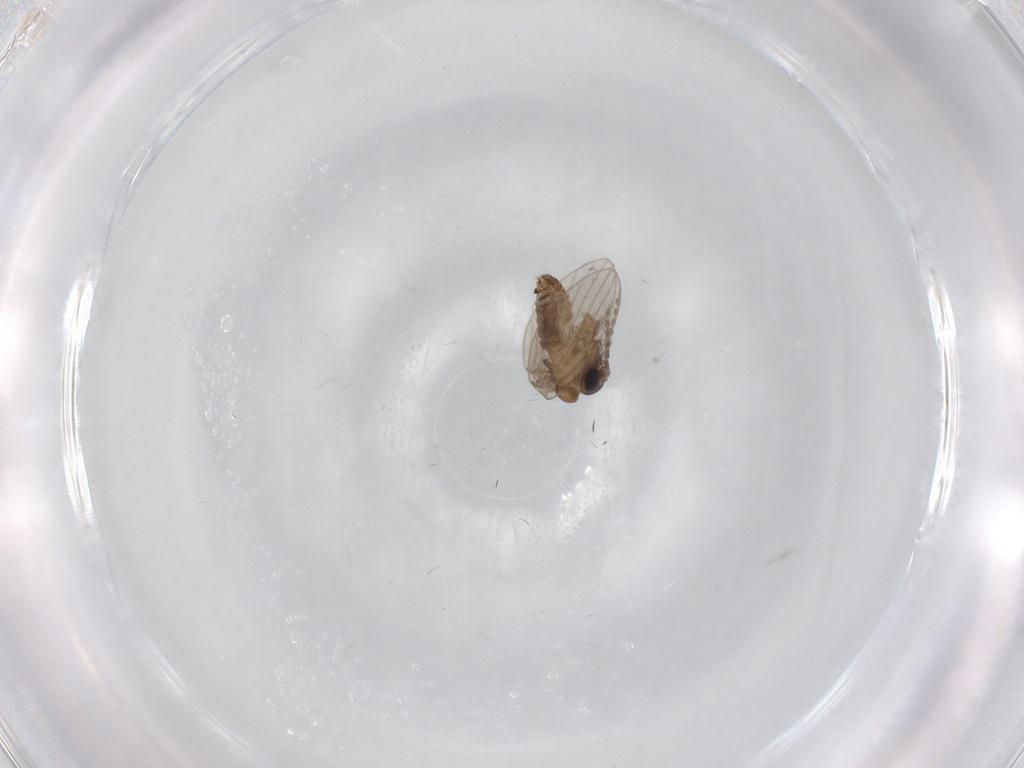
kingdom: Animalia
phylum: Arthropoda
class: Insecta
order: Diptera
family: Psychodidae
